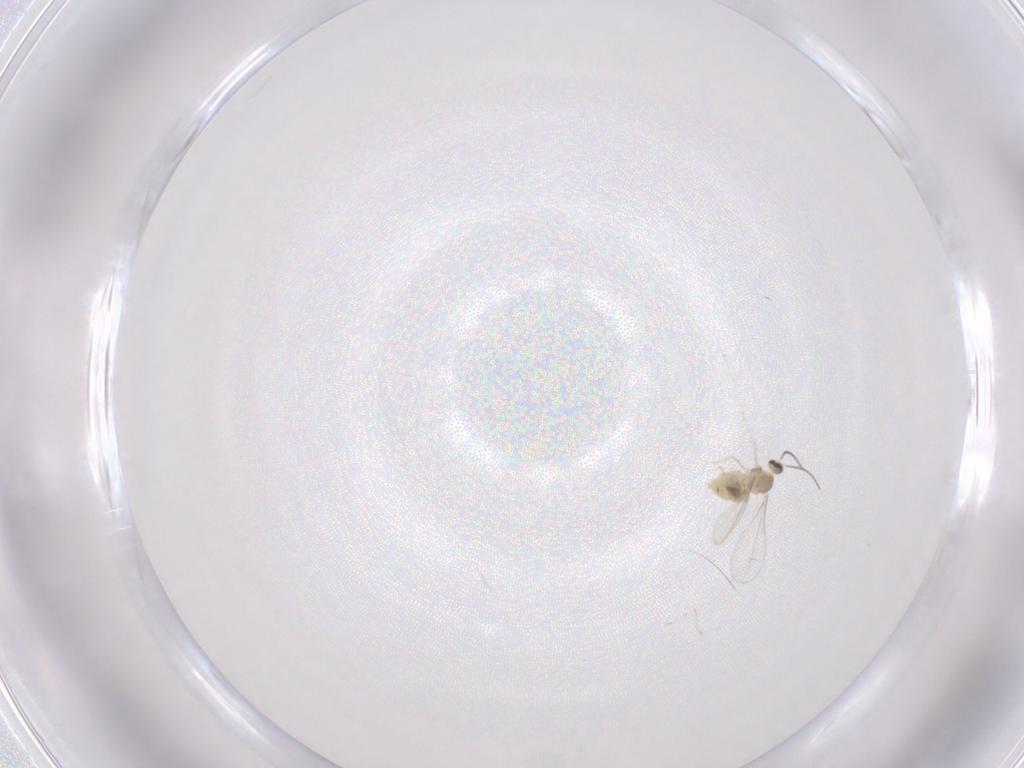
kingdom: Animalia
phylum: Arthropoda
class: Insecta
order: Diptera
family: Cecidomyiidae
